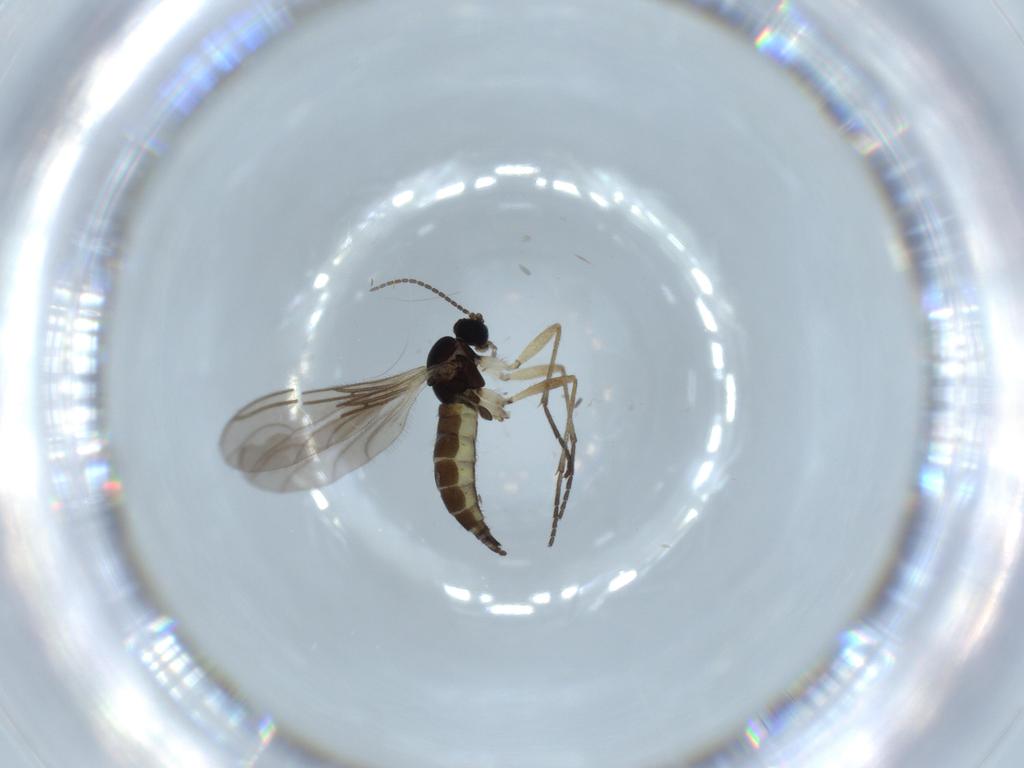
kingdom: Animalia
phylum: Arthropoda
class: Insecta
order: Diptera
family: Sciaridae
